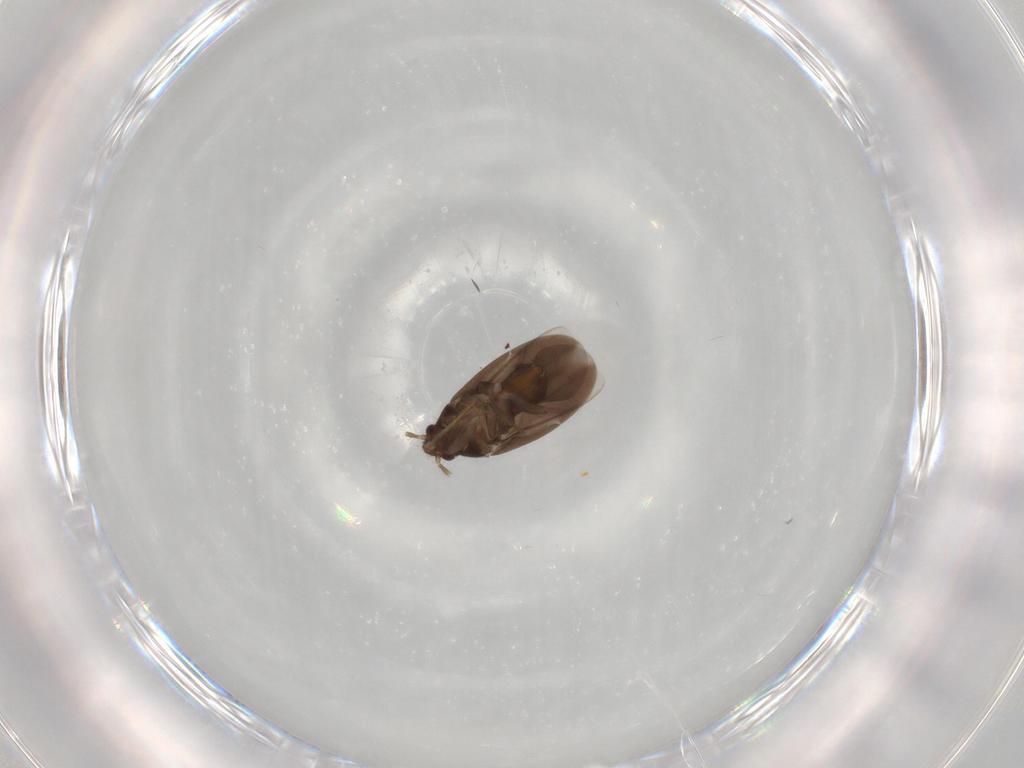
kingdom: Animalia
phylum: Arthropoda
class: Insecta
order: Hemiptera
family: Ceratocombidae
